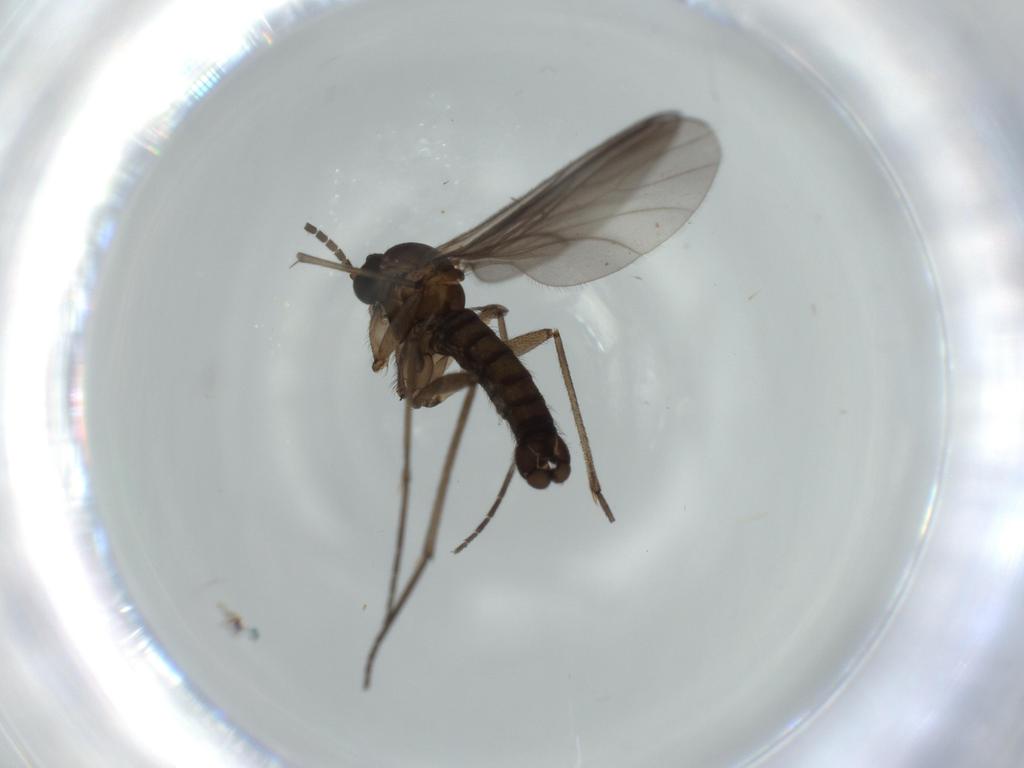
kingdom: Animalia
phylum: Arthropoda
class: Insecta
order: Diptera
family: Sciaridae
